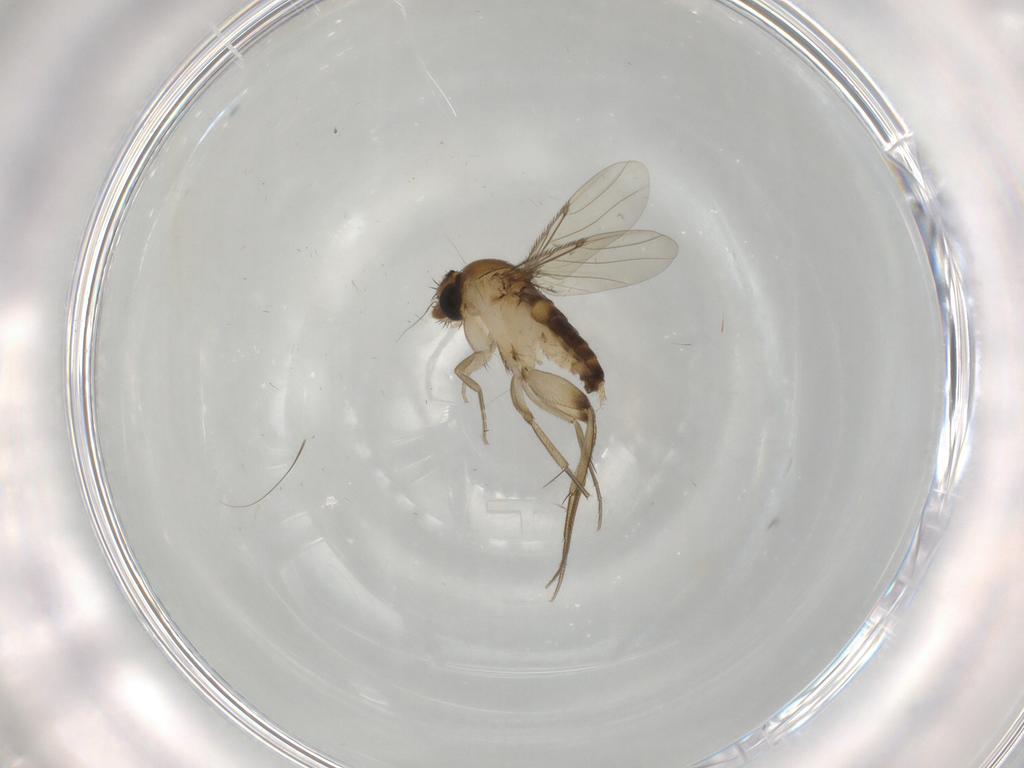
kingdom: Animalia
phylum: Arthropoda
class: Insecta
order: Diptera
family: Phoridae
